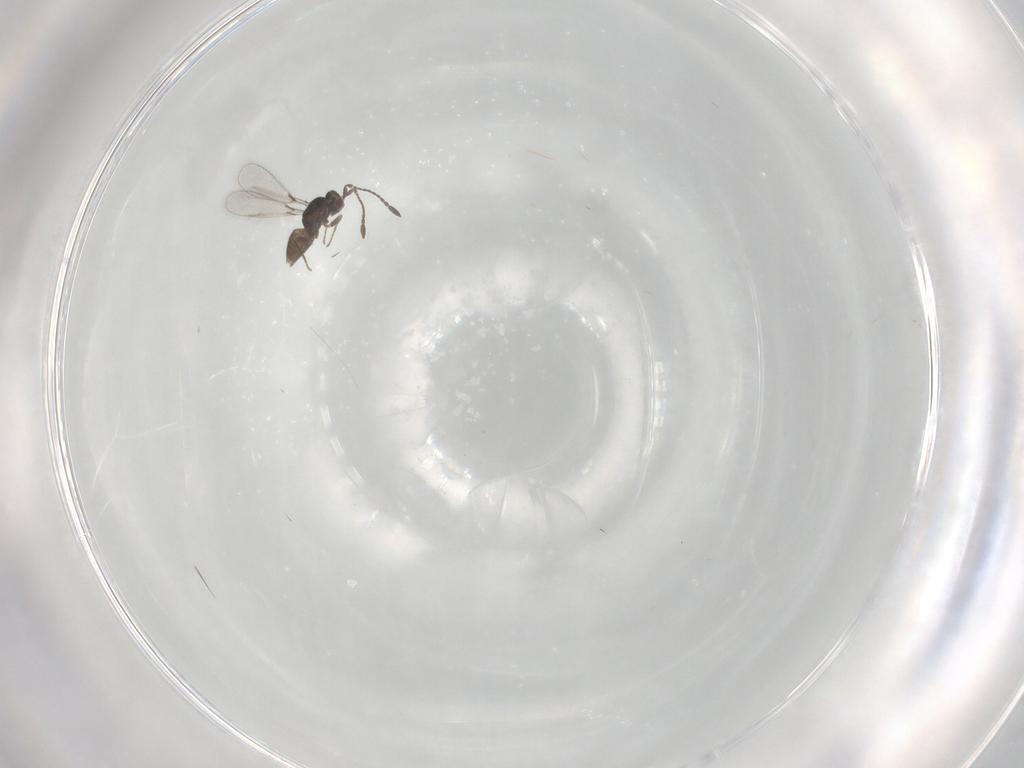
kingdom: Animalia
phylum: Arthropoda
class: Insecta
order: Hymenoptera
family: Mymaridae
